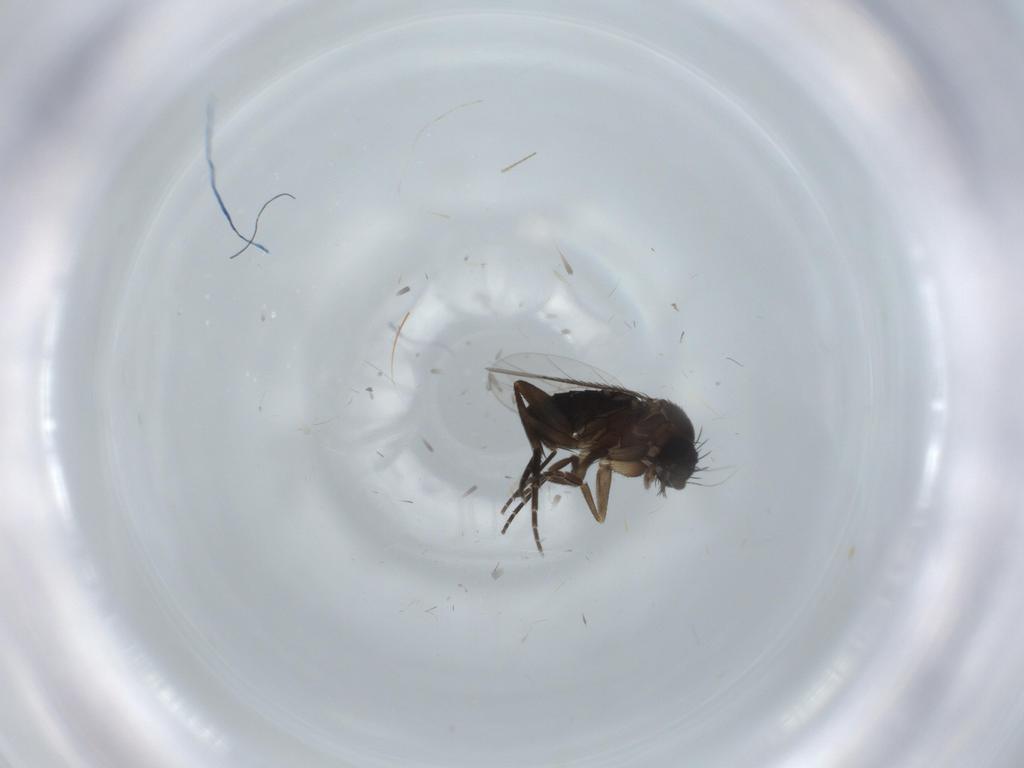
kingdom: Animalia
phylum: Arthropoda
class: Insecta
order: Diptera
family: Phoridae
